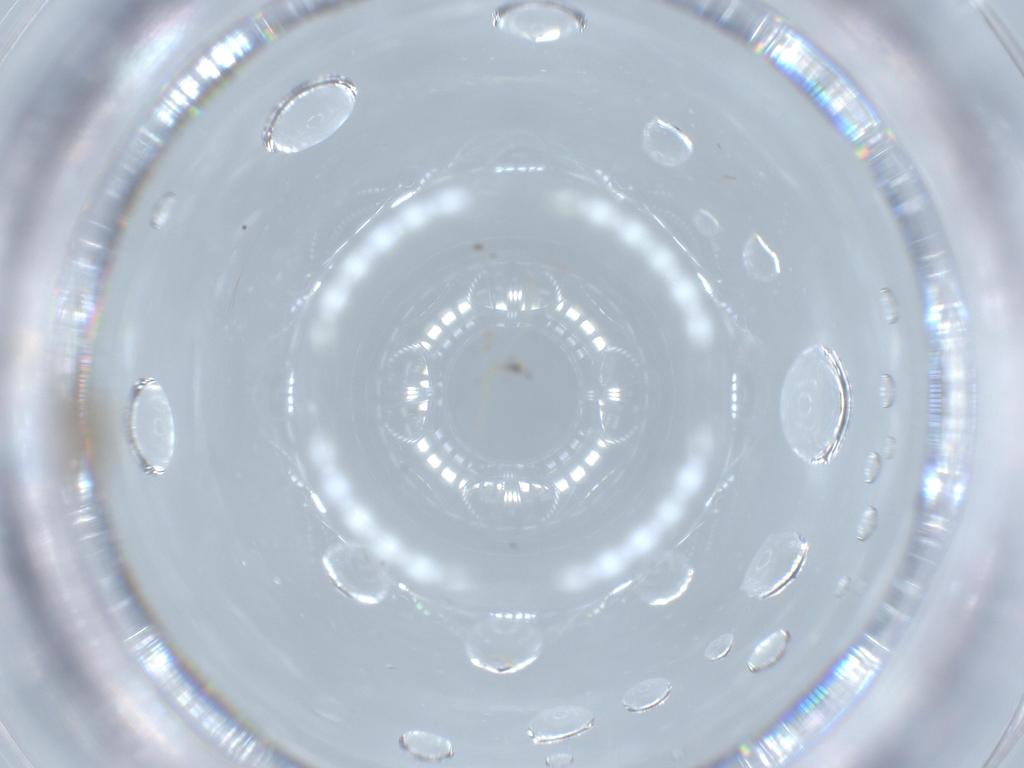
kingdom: Animalia
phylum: Arthropoda
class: Insecta
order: Diptera
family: Cecidomyiidae
